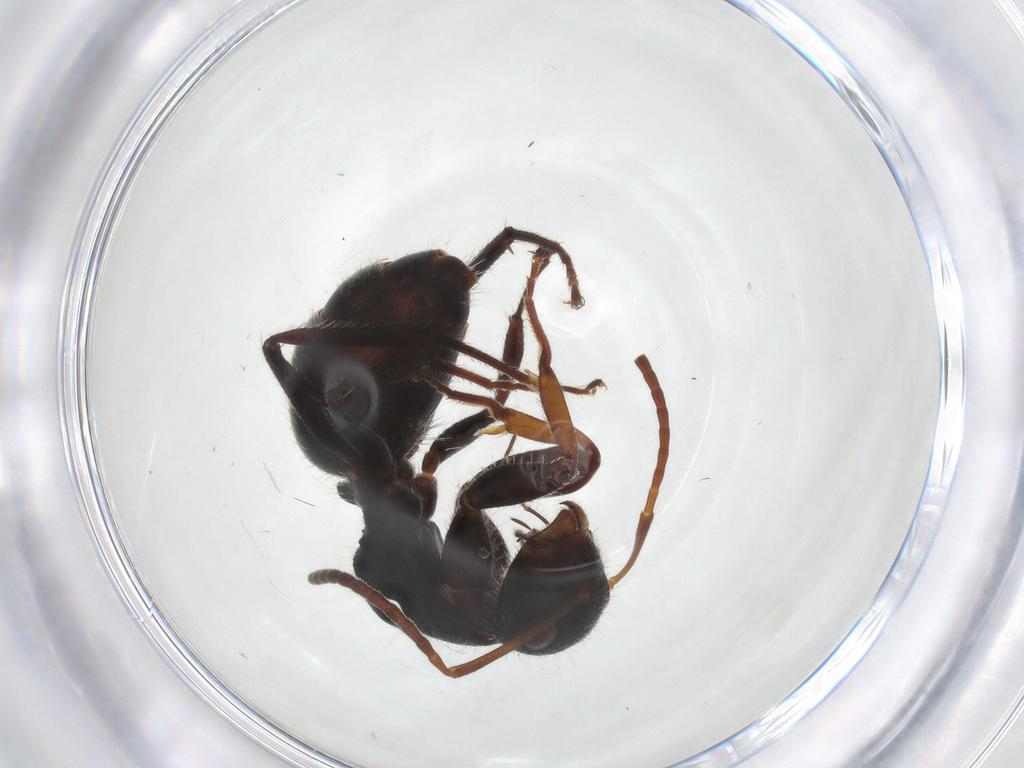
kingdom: Animalia
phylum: Arthropoda
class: Insecta
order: Hymenoptera
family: Formicidae
